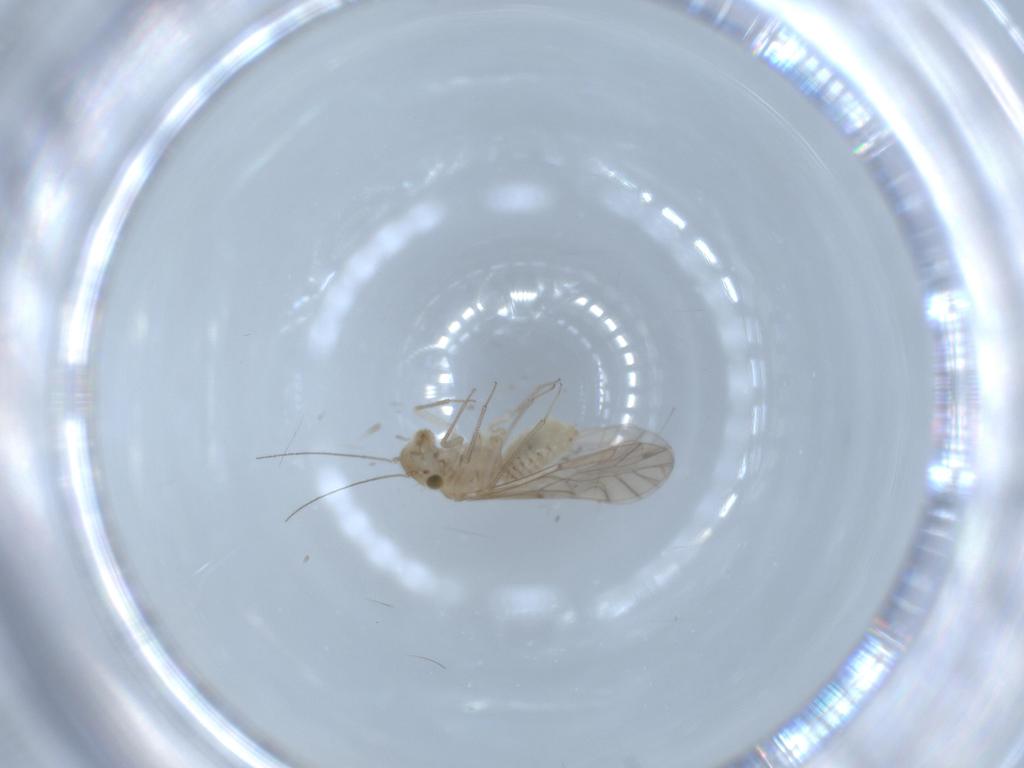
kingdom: Animalia
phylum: Arthropoda
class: Insecta
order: Psocodea
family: Lachesillidae
